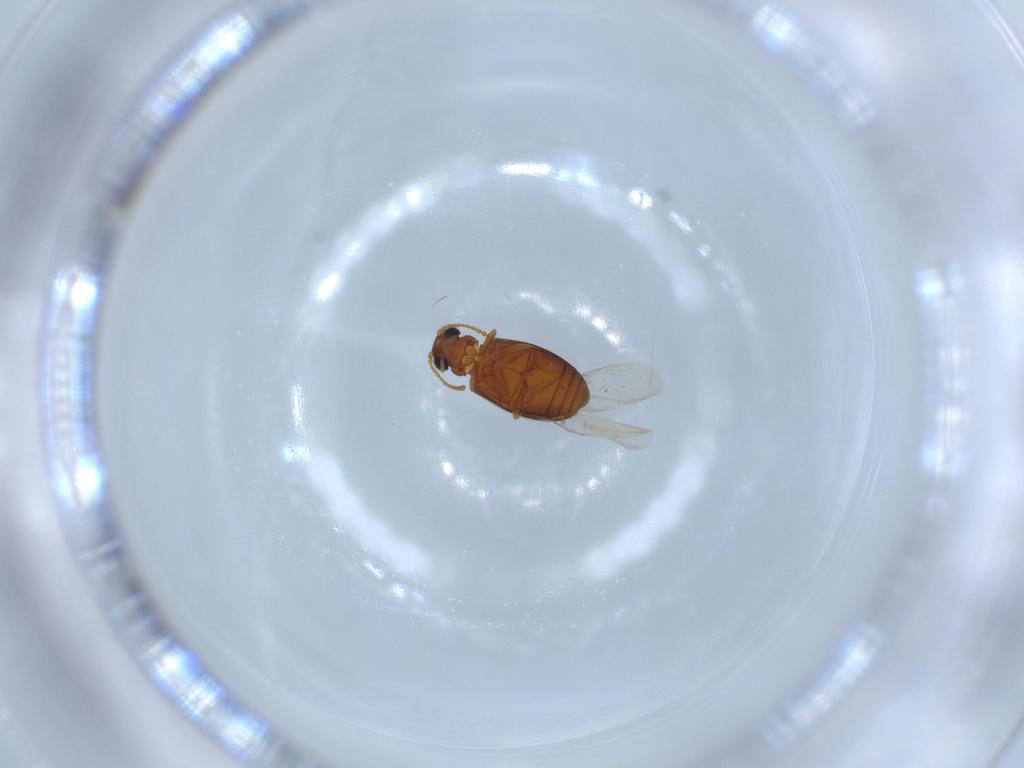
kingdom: Animalia
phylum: Arthropoda
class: Insecta
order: Coleoptera
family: Aderidae
